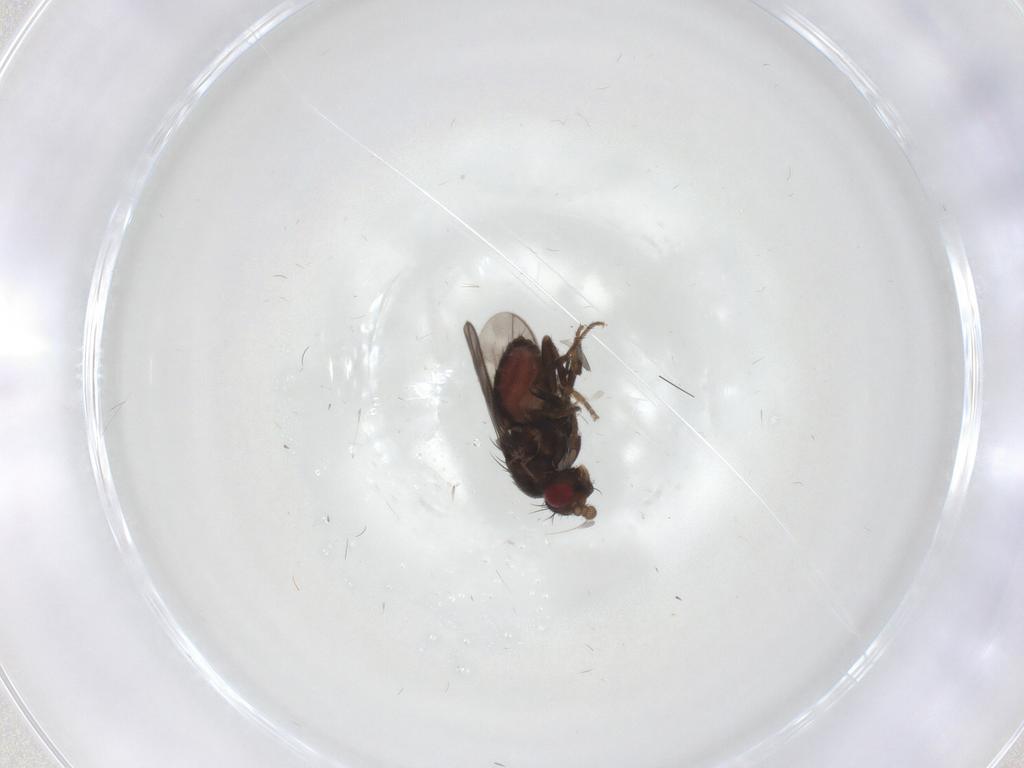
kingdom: Animalia
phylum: Arthropoda
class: Insecta
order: Diptera
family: Sphaeroceridae
